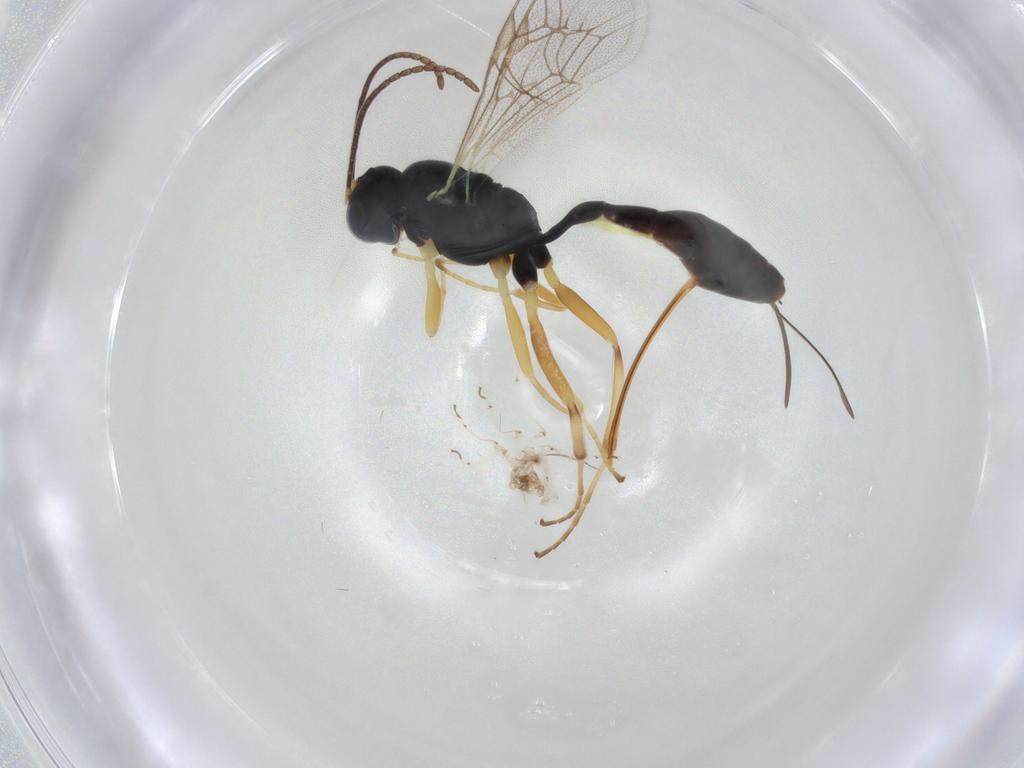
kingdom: Animalia
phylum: Arthropoda
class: Insecta
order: Hymenoptera
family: Ichneumonidae
